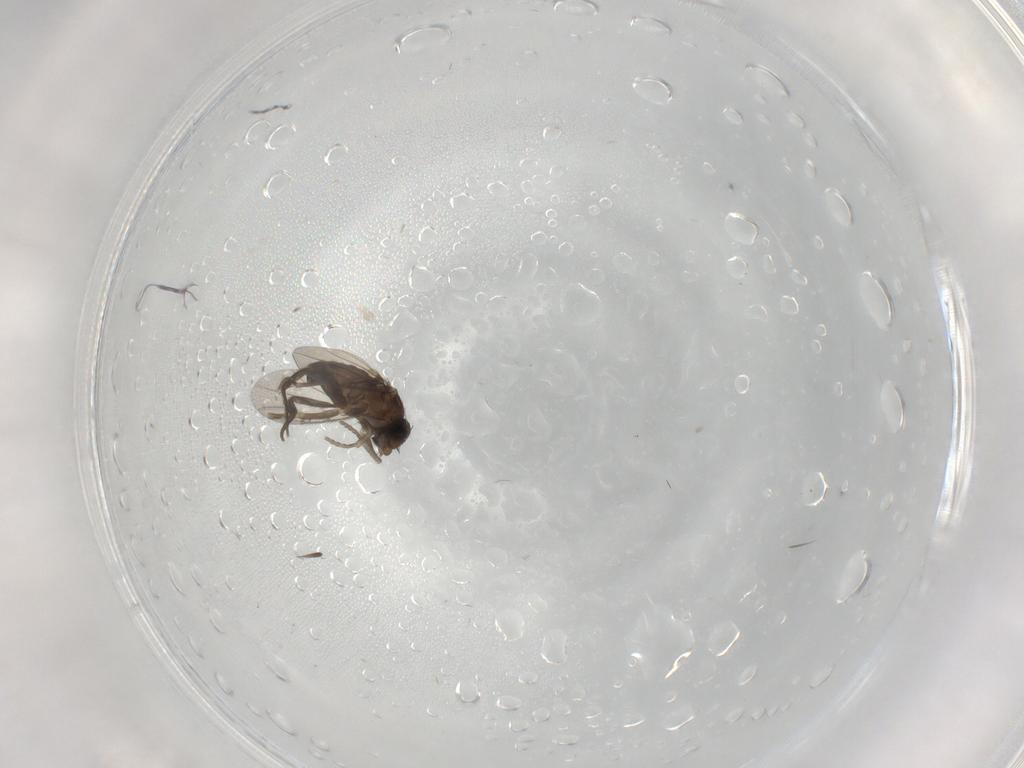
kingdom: Animalia
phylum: Arthropoda
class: Insecta
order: Diptera
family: Phoridae
